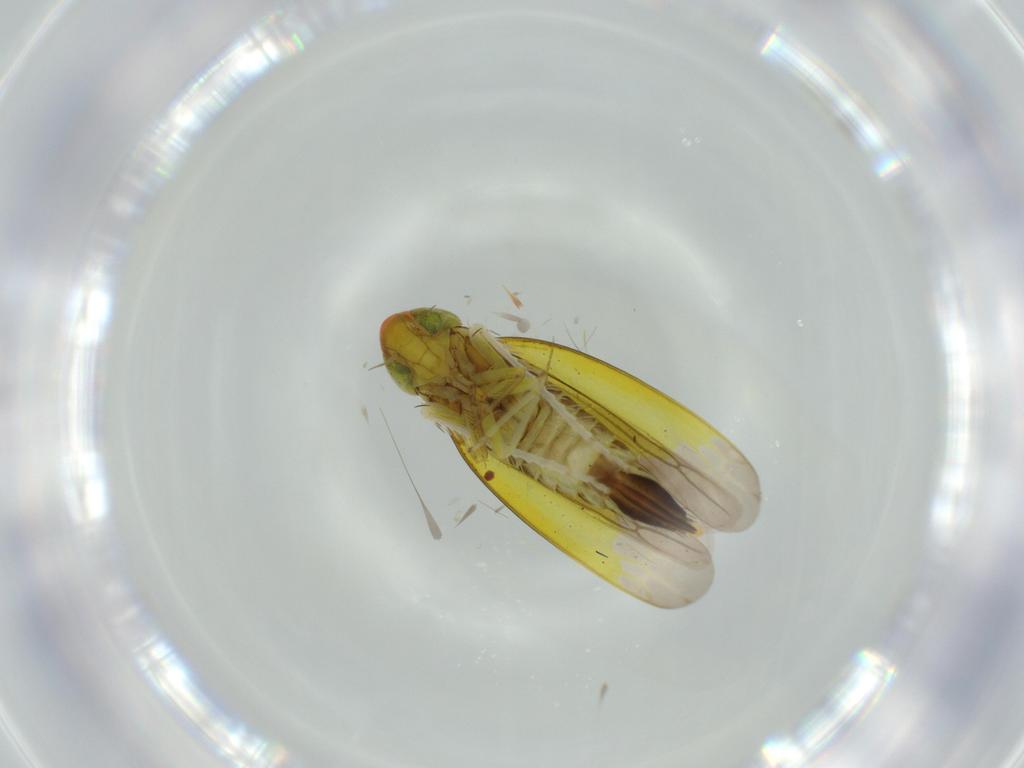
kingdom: Animalia
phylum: Arthropoda
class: Insecta
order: Hemiptera
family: Cicadellidae
